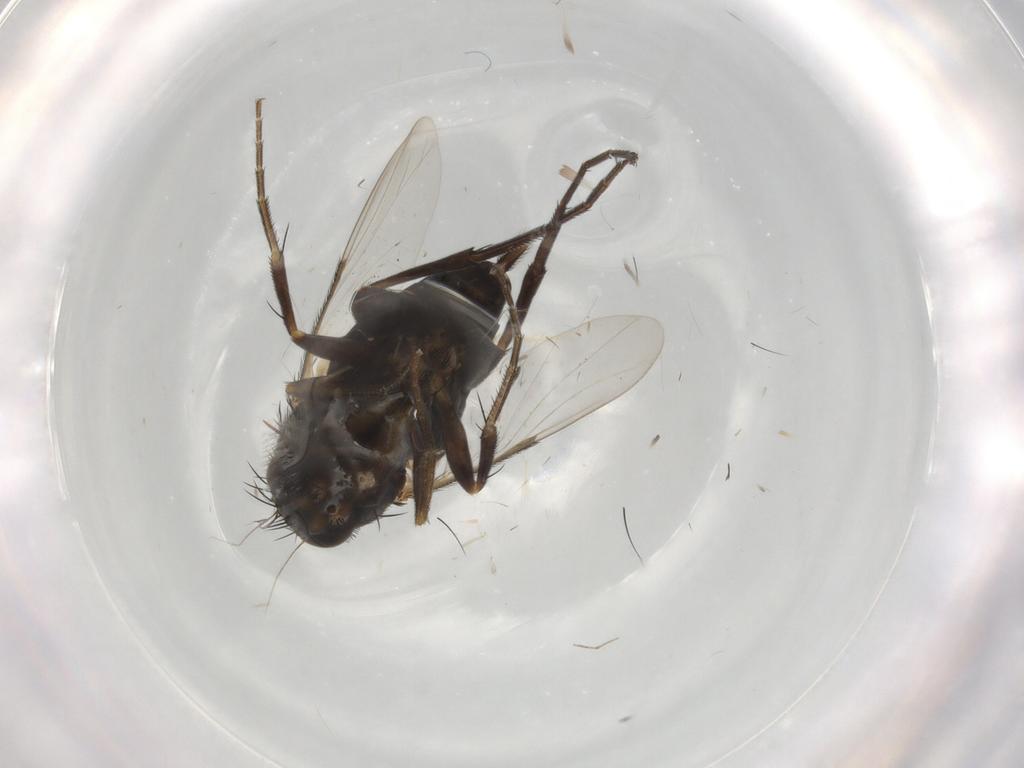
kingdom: Animalia
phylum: Arthropoda
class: Insecta
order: Diptera
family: Phoridae
